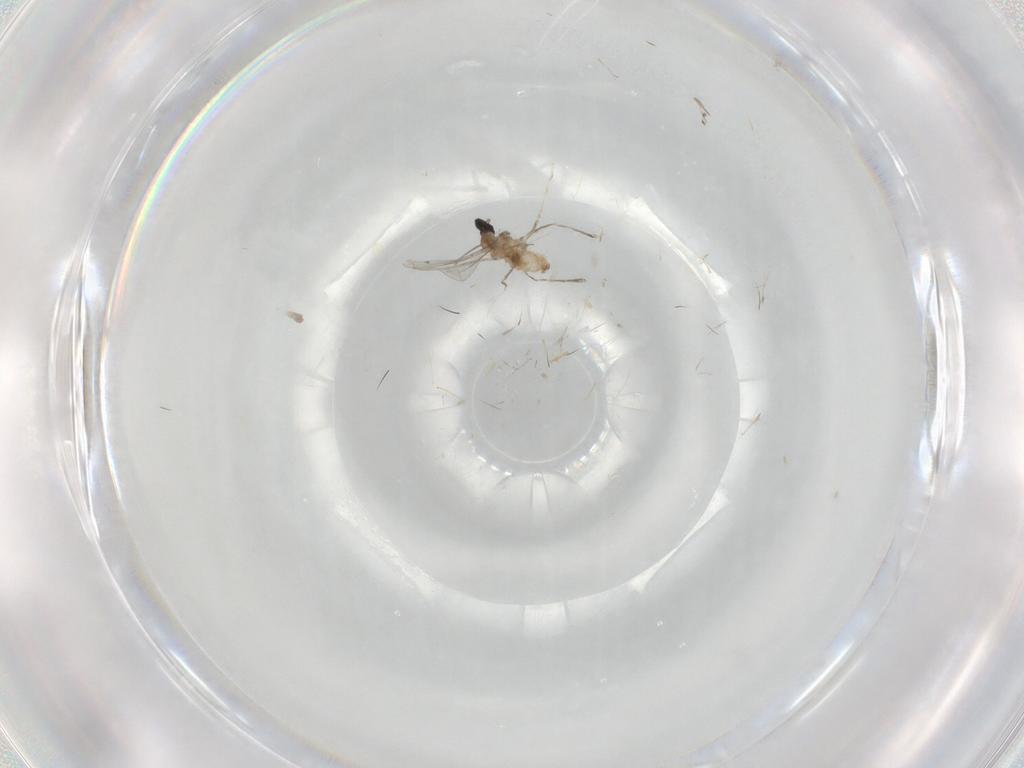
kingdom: Animalia
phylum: Arthropoda
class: Insecta
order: Diptera
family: Cecidomyiidae
